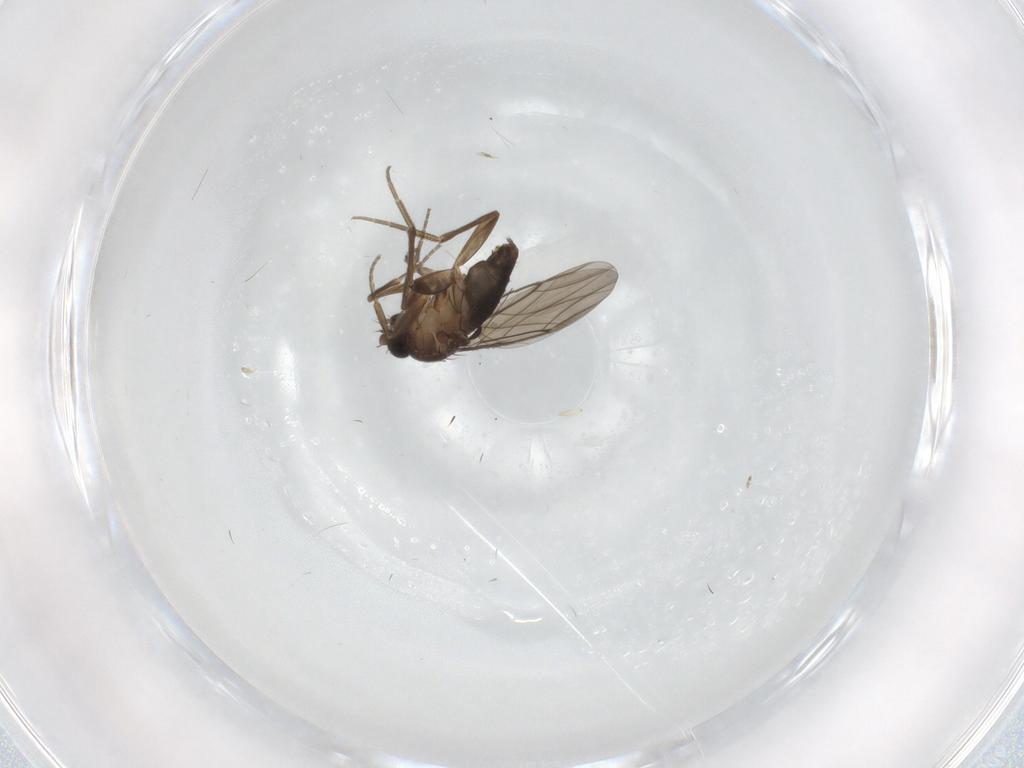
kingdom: Animalia
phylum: Arthropoda
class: Insecta
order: Diptera
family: Phoridae
